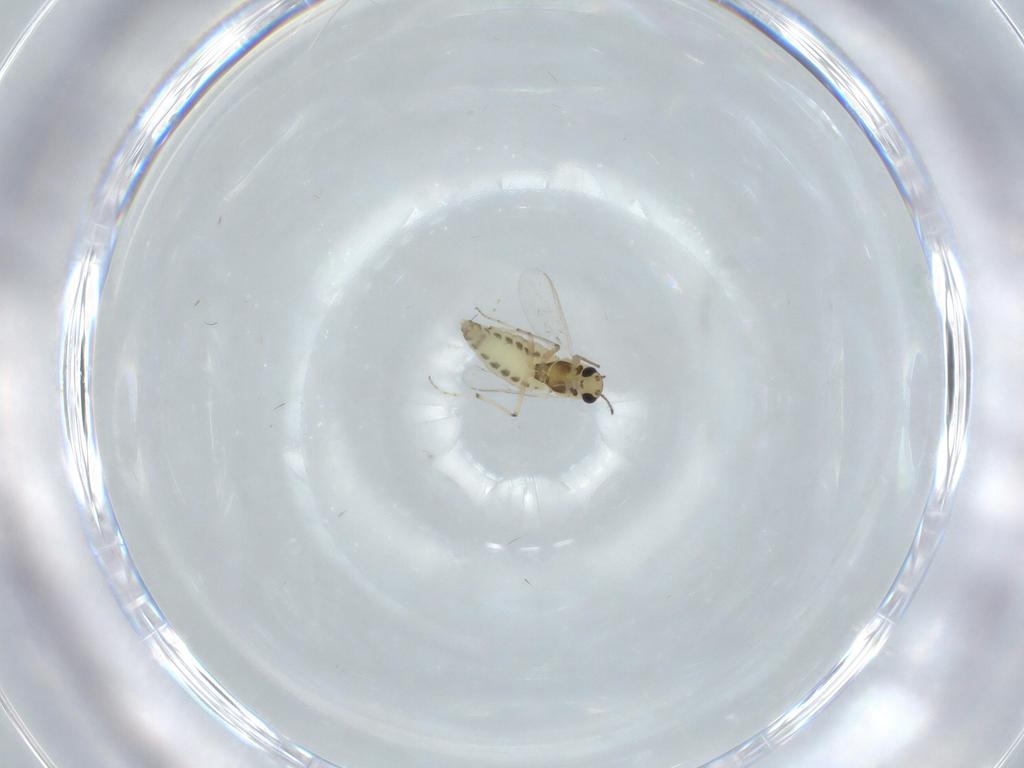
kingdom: Animalia
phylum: Arthropoda
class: Insecta
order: Diptera
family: Chironomidae
